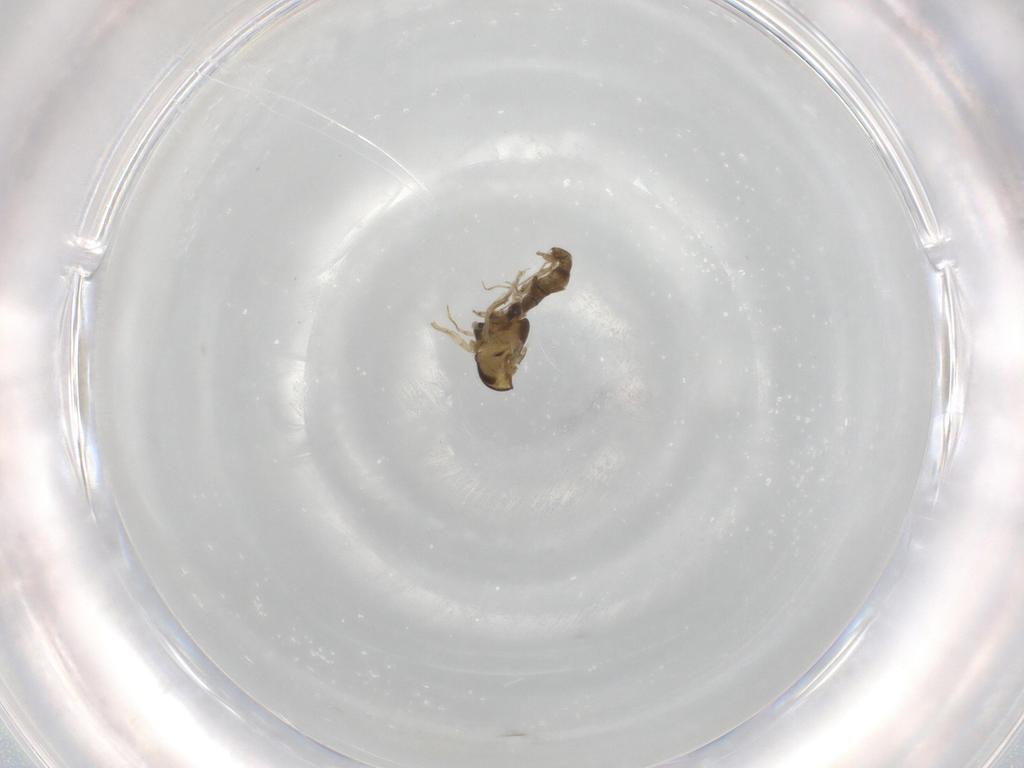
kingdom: Animalia
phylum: Arthropoda
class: Insecta
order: Diptera
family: Chironomidae
